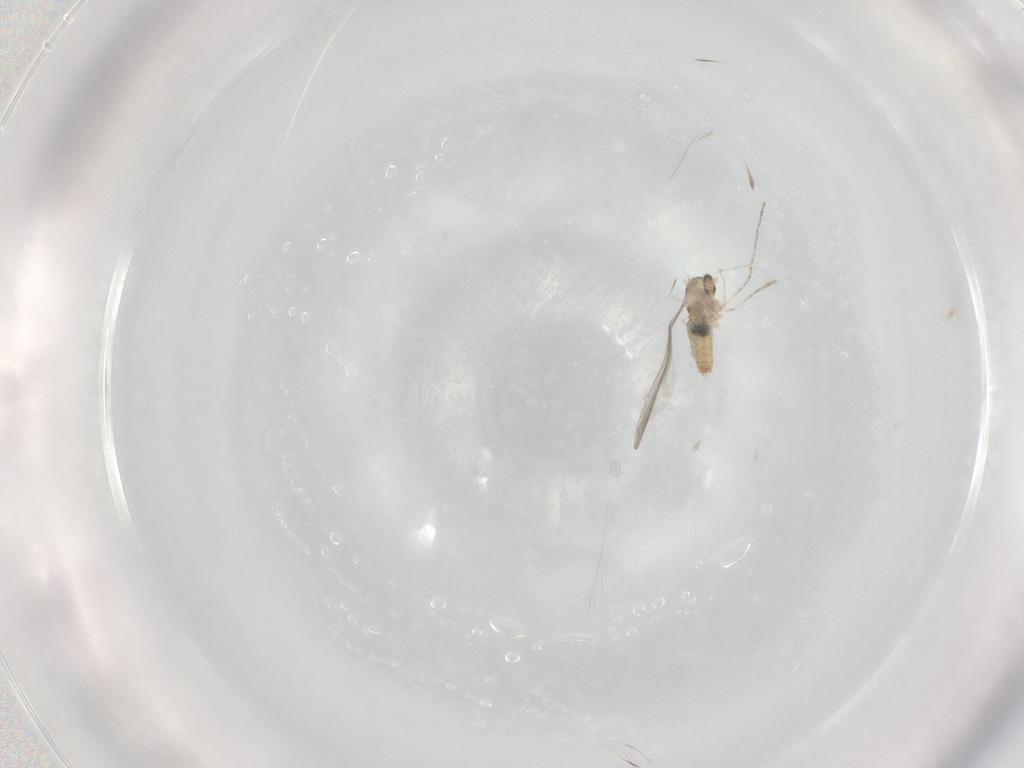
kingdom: Animalia
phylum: Arthropoda
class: Insecta
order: Diptera
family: Cecidomyiidae
